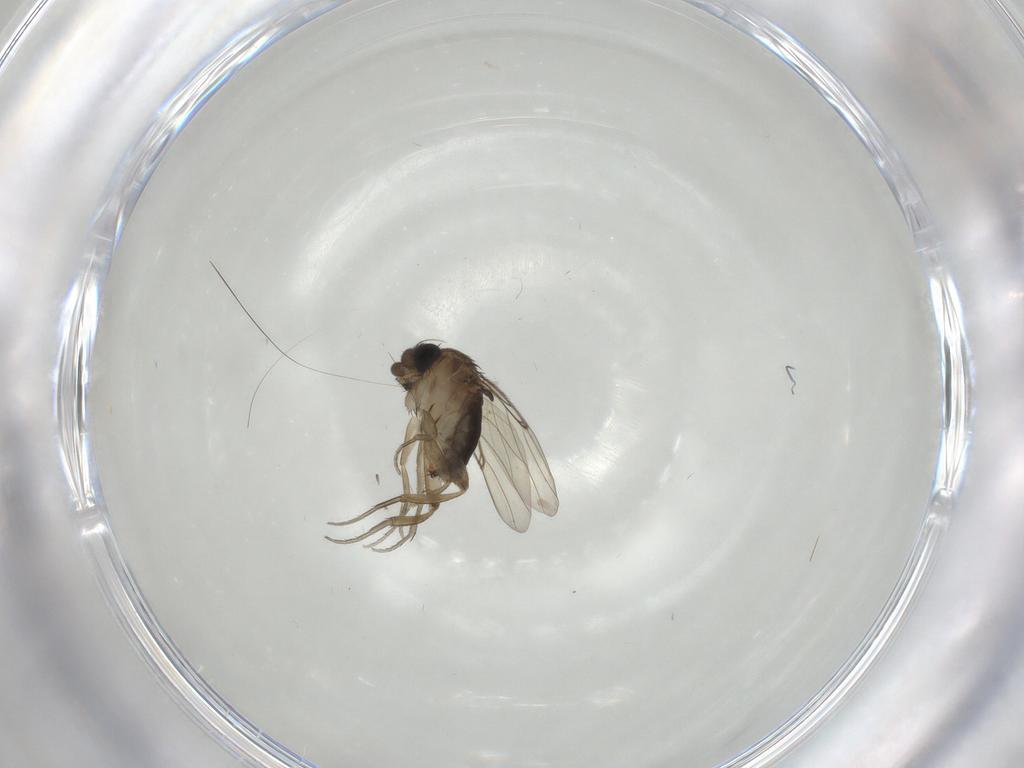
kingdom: Animalia
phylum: Arthropoda
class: Insecta
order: Diptera
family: Phoridae
